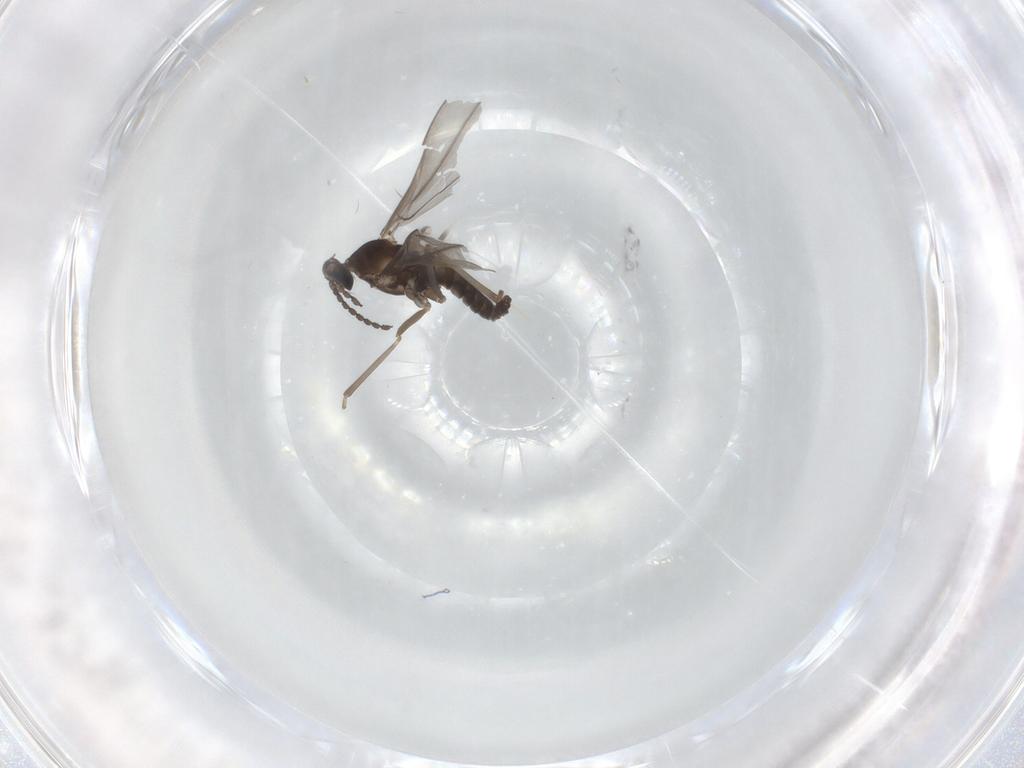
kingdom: Animalia
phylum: Arthropoda
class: Insecta
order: Diptera
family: Cecidomyiidae
